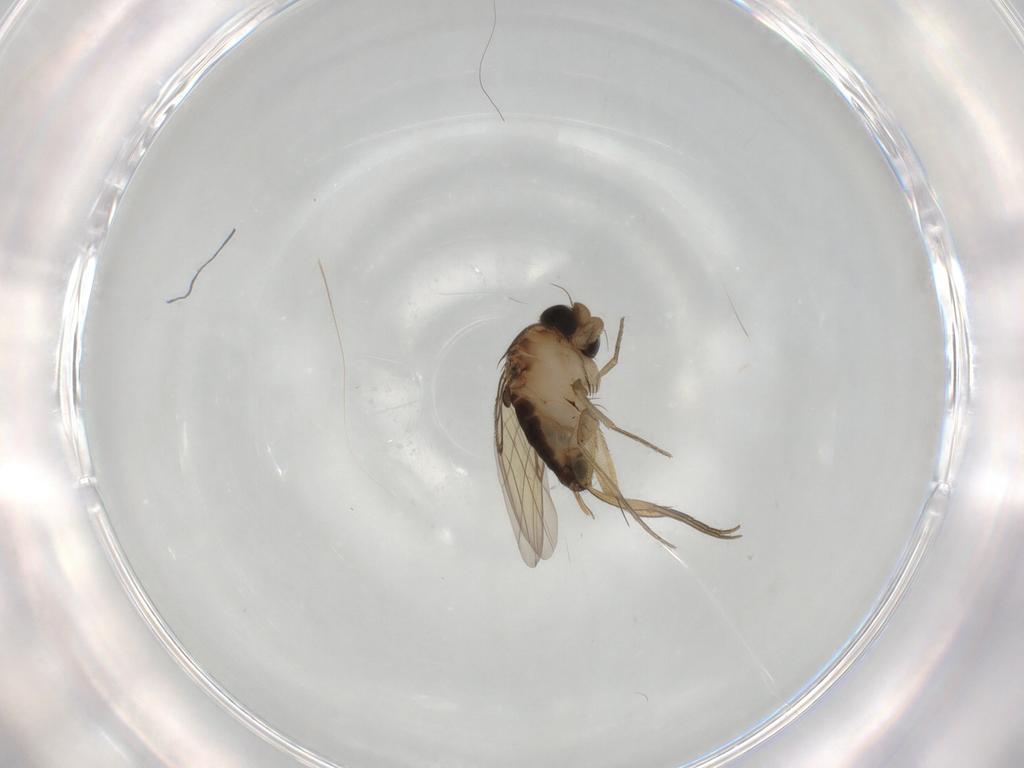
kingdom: Animalia
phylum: Arthropoda
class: Insecta
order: Diptera
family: Phoridae
